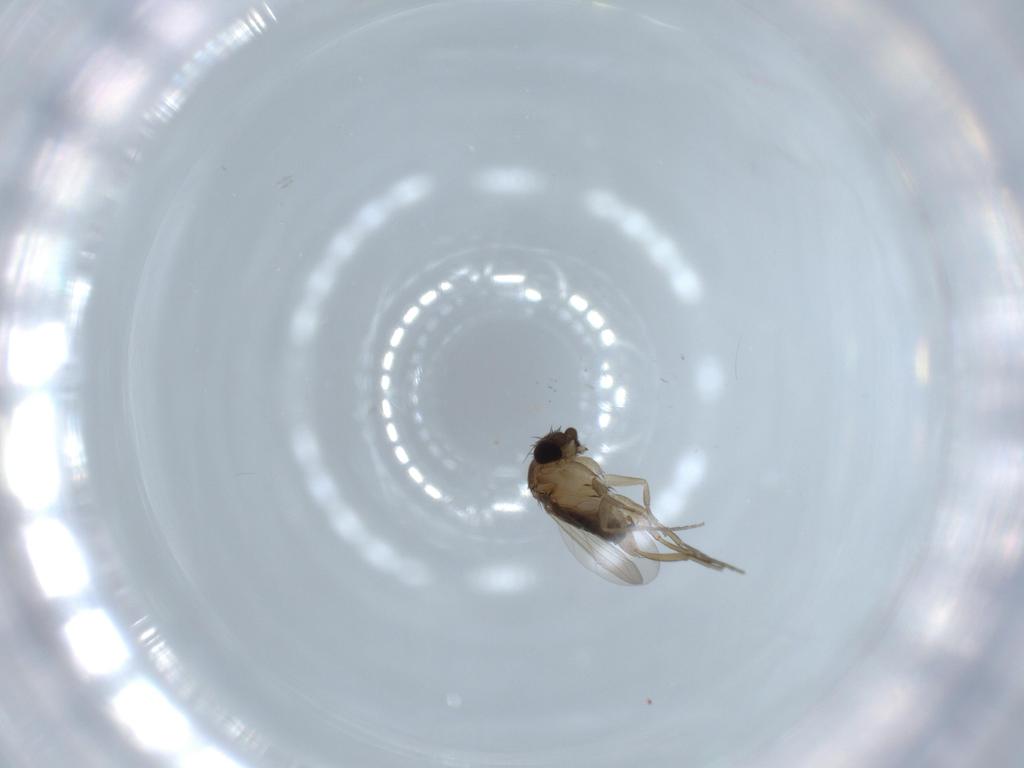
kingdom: Animalia
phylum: Arthropoda
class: Insecta
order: Diptera
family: Phoridae
